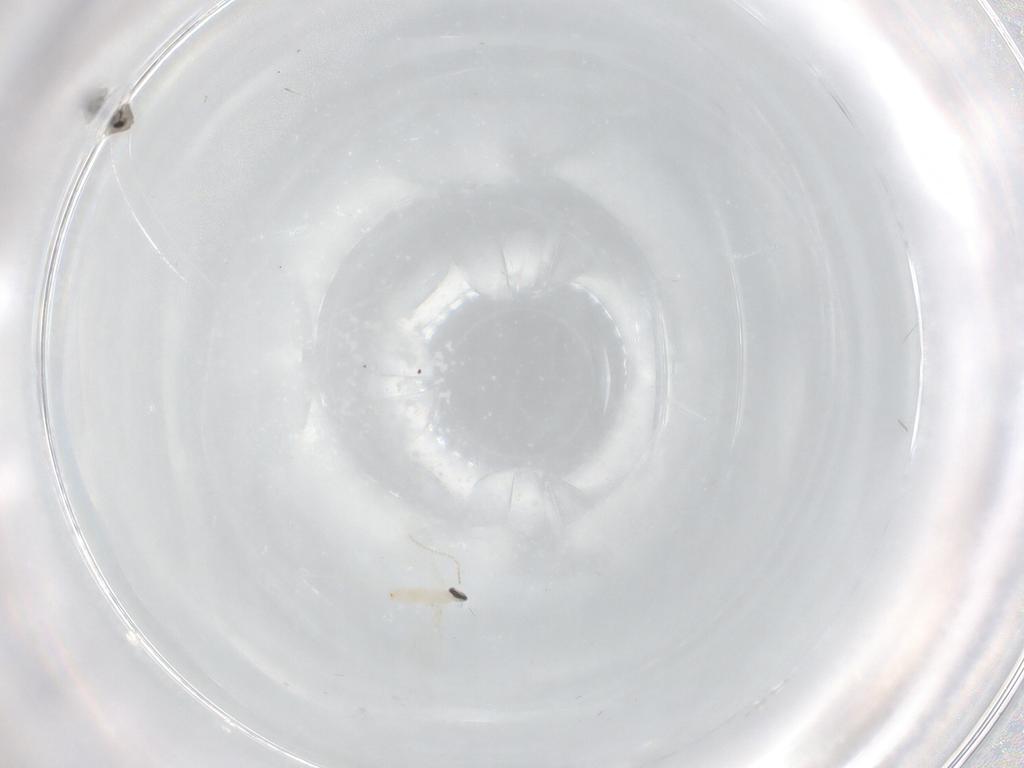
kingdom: Animalia
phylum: Arthropoda
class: Insecta
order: Diptera
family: Cecidomyiidae
